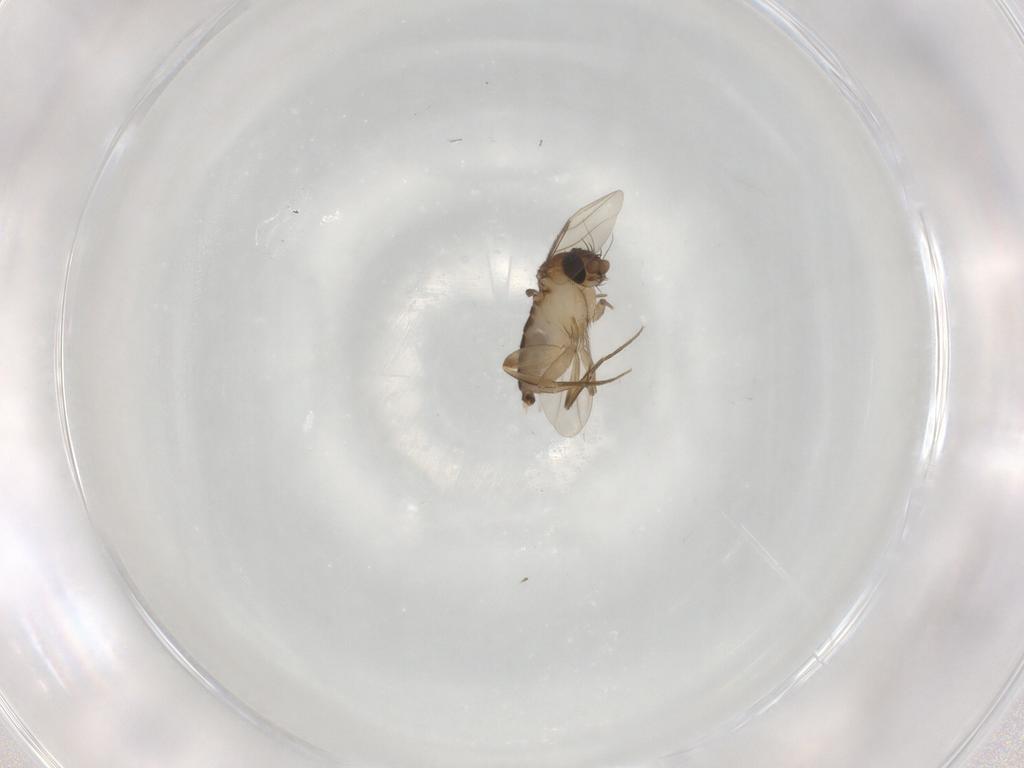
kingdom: Animalia
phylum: Arthropoda
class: Insecta
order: Diptera
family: Phoridae
